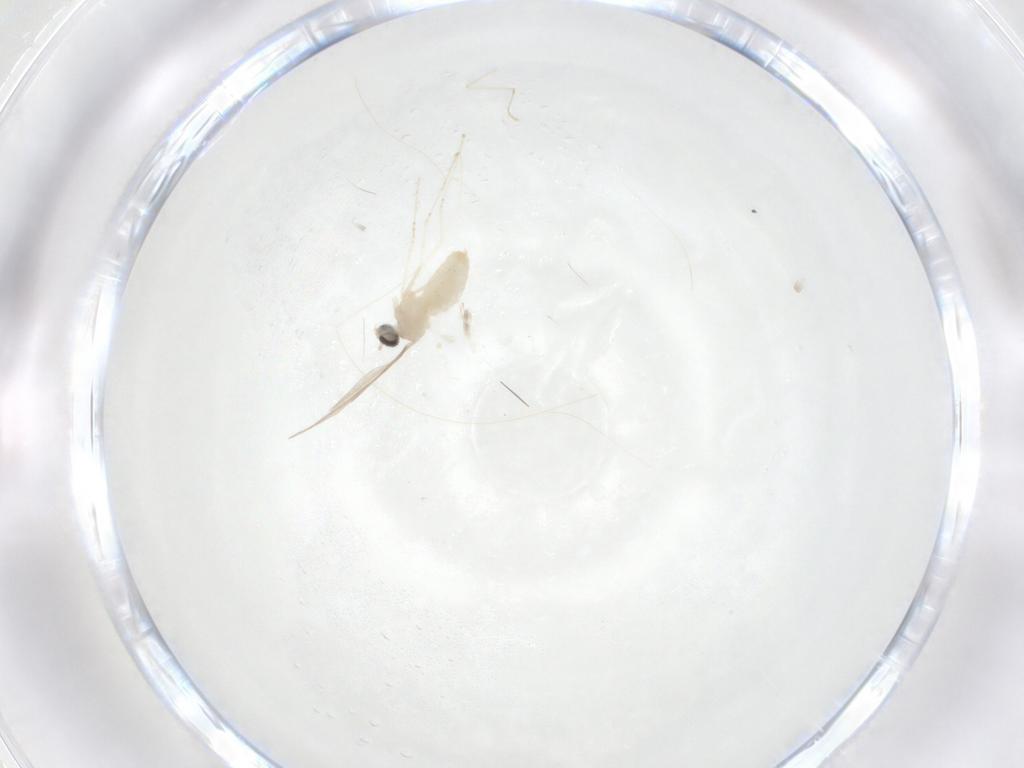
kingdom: Animalia
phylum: Arthropoda
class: Insecta
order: Diptera
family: Cecidomyiidae
